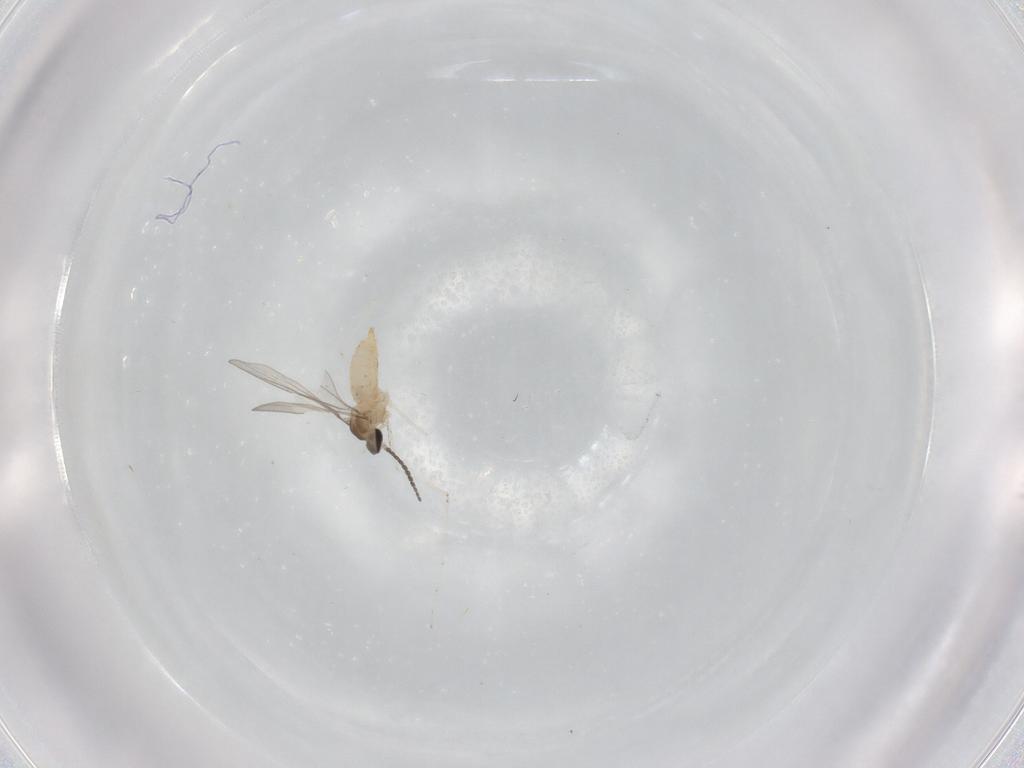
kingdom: Animalia
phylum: Arthropoda
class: Insecta
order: Diptera
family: Cecidomyiidae
